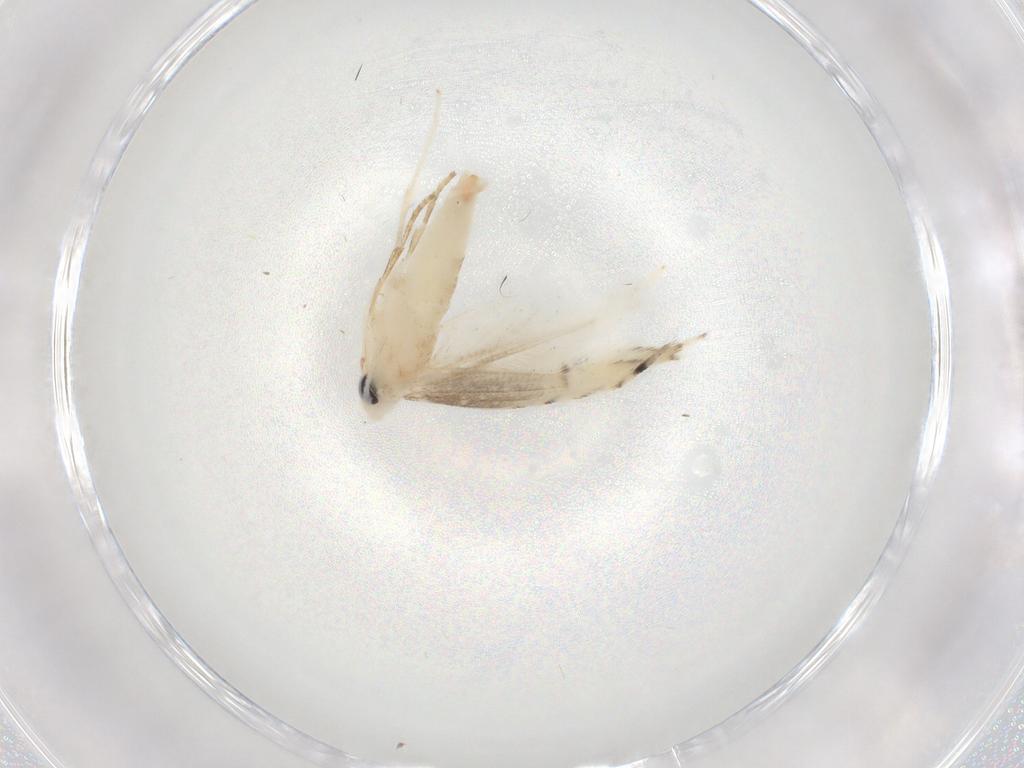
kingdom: Animalia
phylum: Arthropoda
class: Insecta
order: Lepidoptera
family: Gracillariidae
